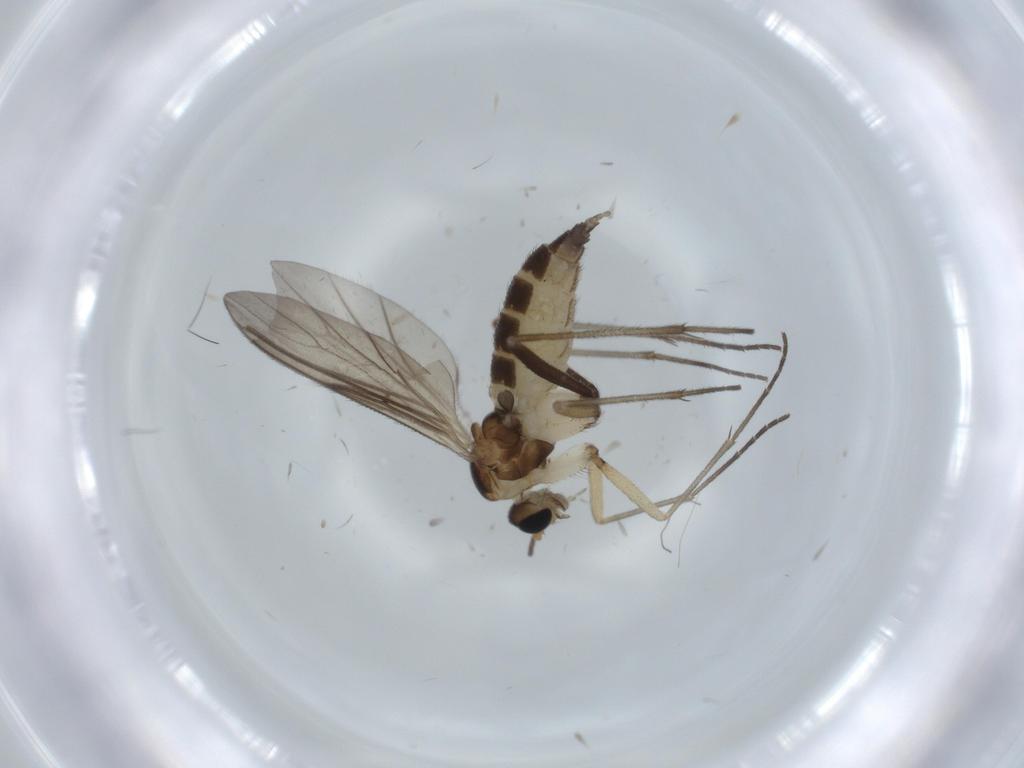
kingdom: Animalia
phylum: Arthropoda
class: Insecta
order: Diptera
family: Sciaridae
